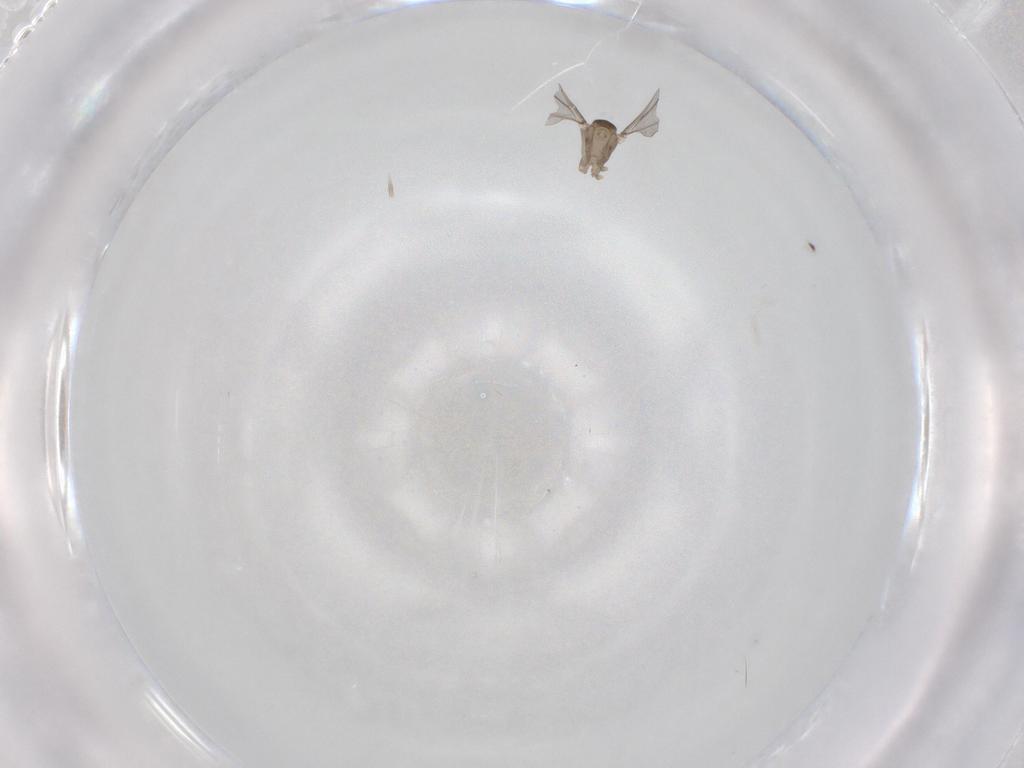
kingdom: Animalia
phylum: Arthropoda
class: Insecta
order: Diptera
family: Cecidomyiidae
